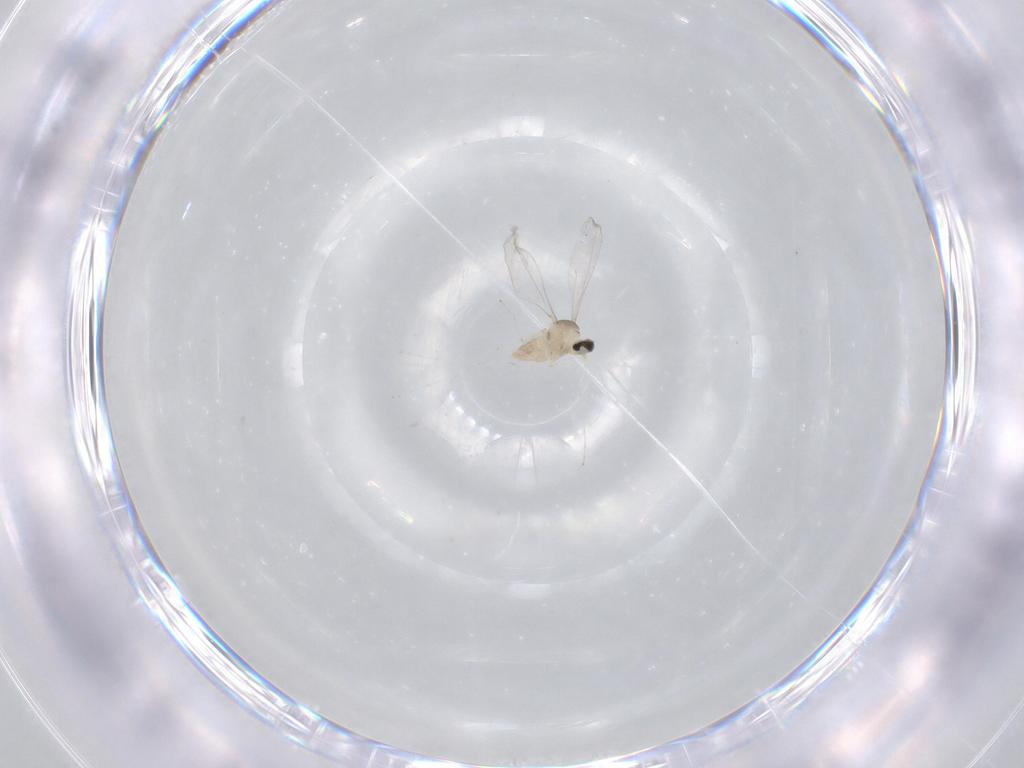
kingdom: Animalia
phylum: Arthropoda
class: Insecta
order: Diptera
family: Cecidomyiidae
